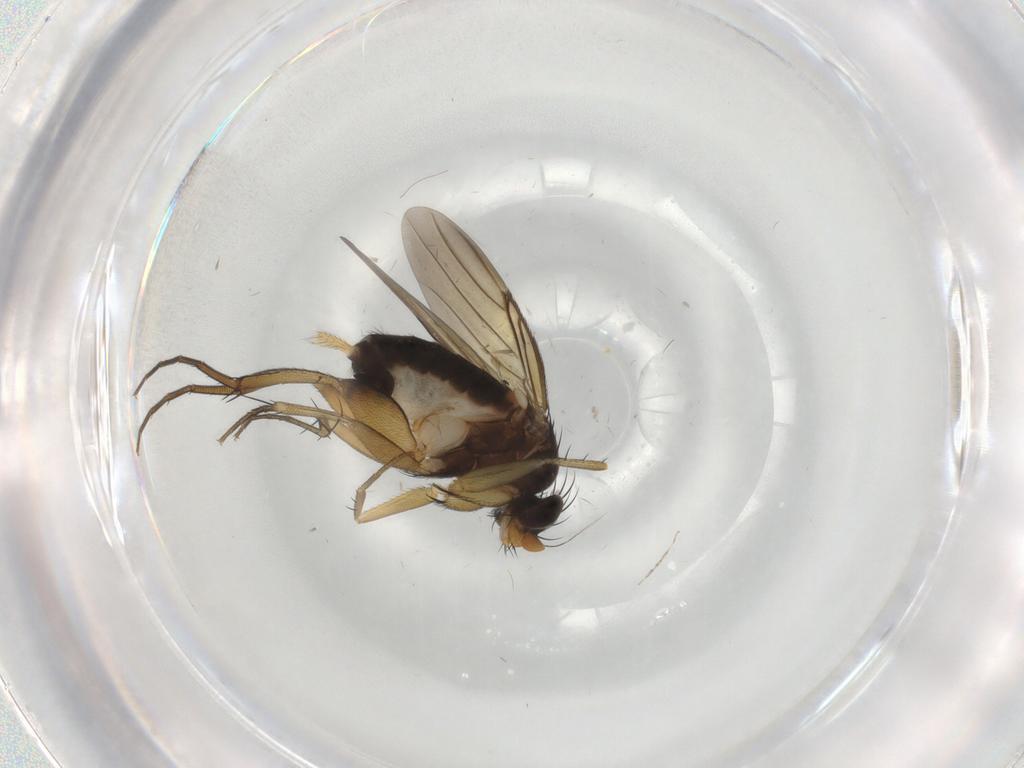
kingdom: Animalia
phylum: Arthropoda
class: Insecta
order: Diptera
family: Phoridae
